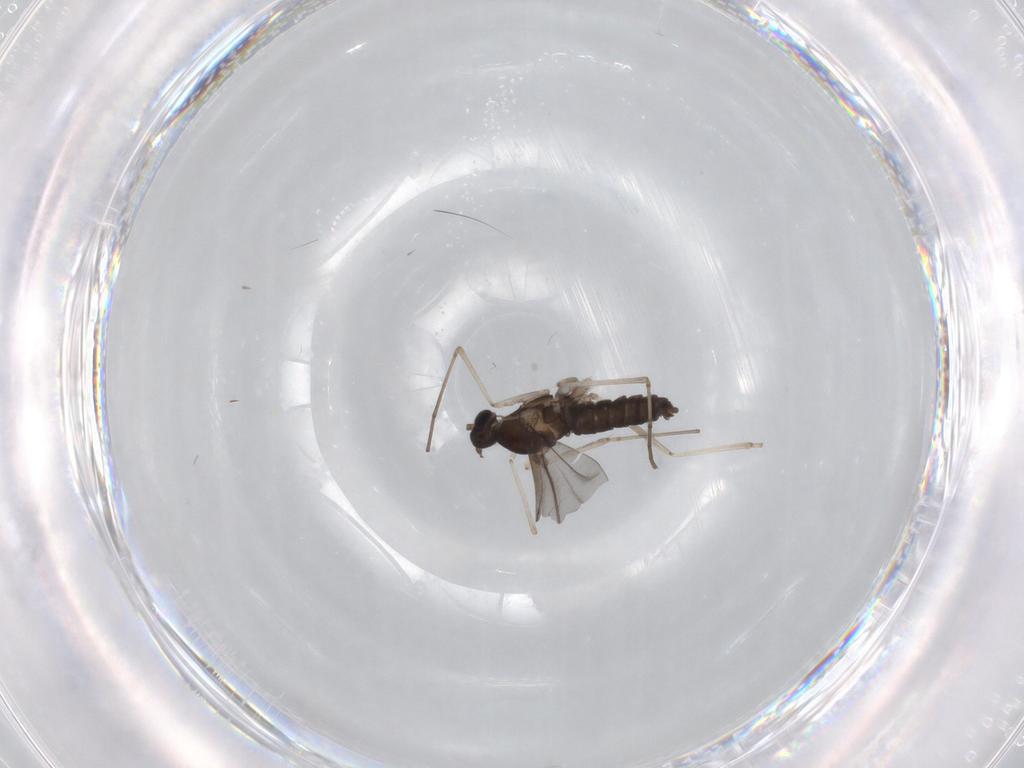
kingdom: Animalia
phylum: Arthropoda
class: Insecta
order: Diptera
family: Cecidomyiidae
